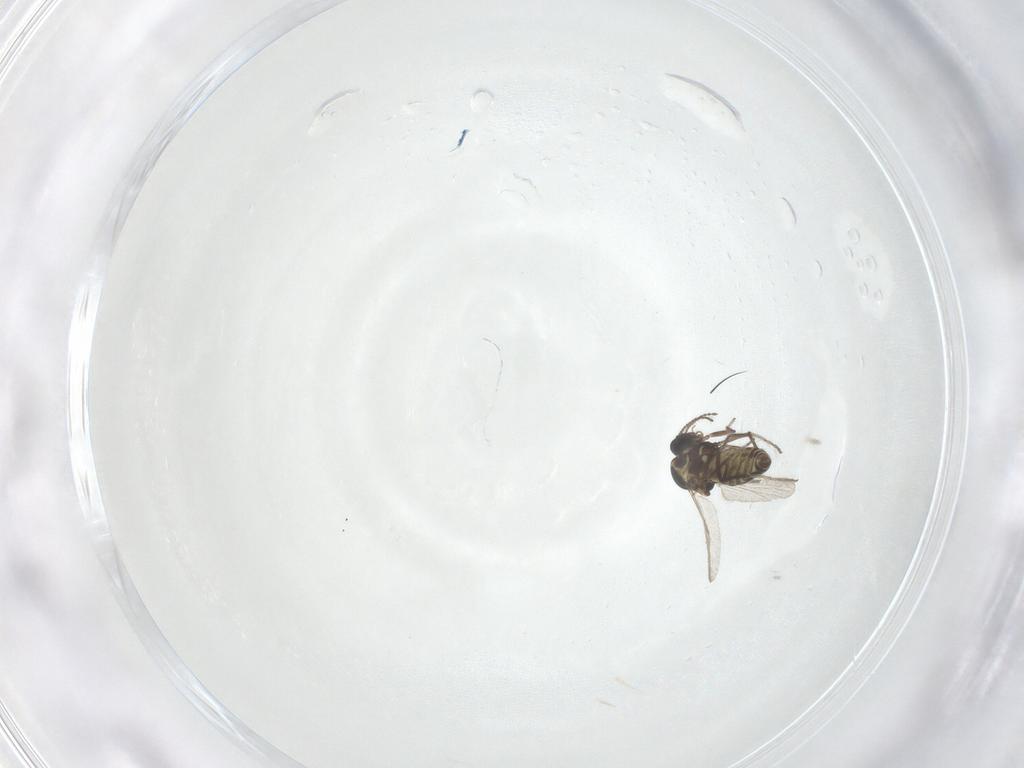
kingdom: Animalia
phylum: Arthropoda
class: Insecta
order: Diptera
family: Ceratopogonidae
